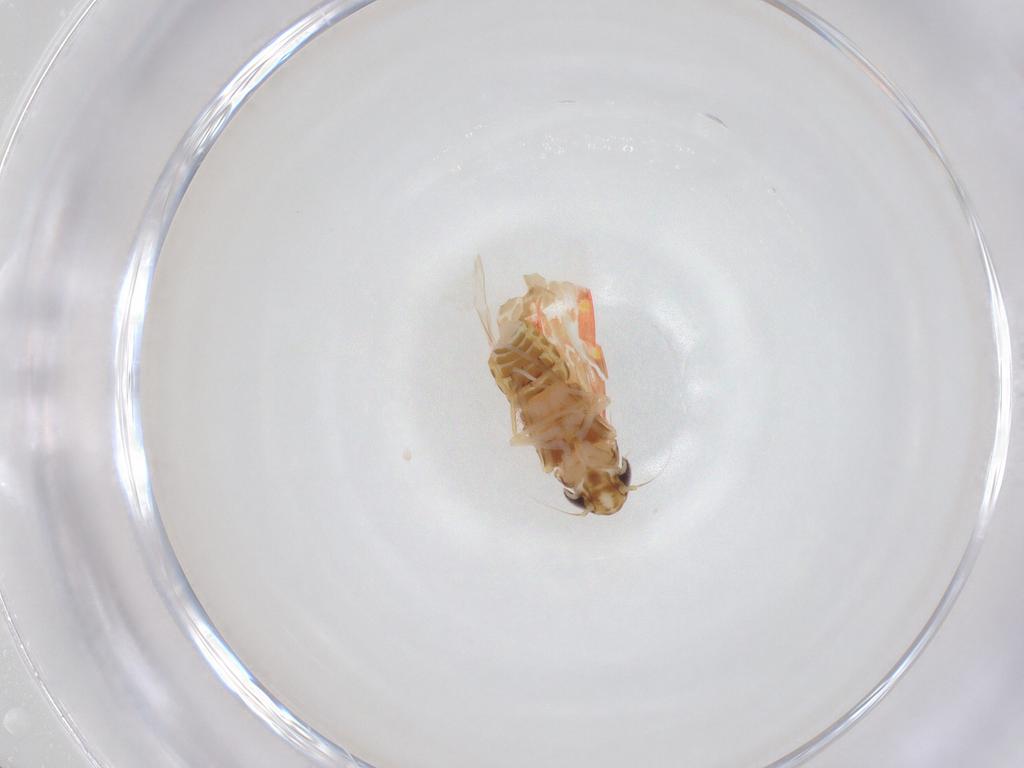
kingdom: Animalia
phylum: Arthropoda
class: Insecta
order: Hemiptera
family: Cicadellidae
